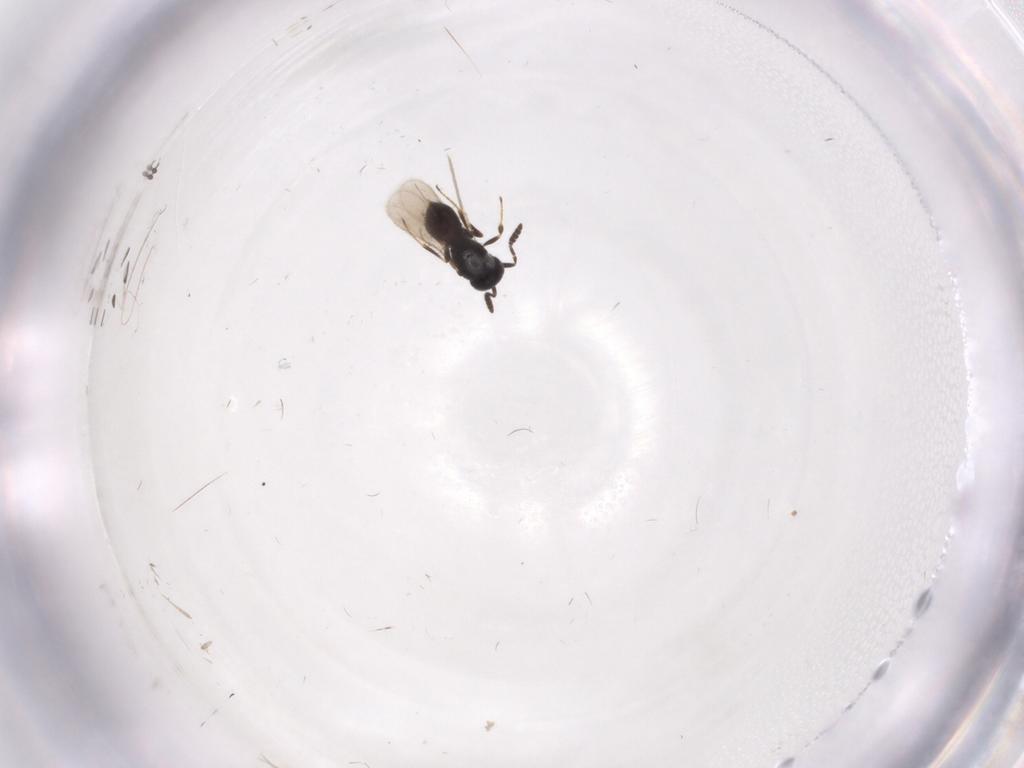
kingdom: Animalia
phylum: Arthropoda
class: Insecta
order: Hymenoptera
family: Scelionidae
